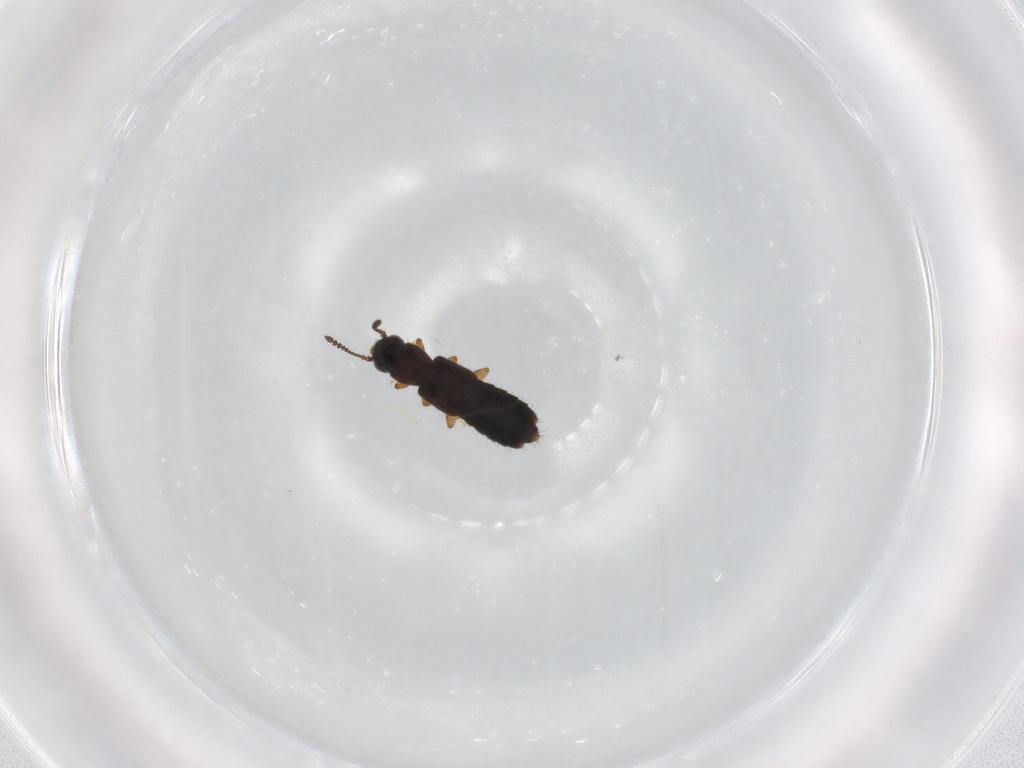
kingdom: Animalia
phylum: Arthropoda
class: Insecta
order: Coleoptera
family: Staphylinidae
